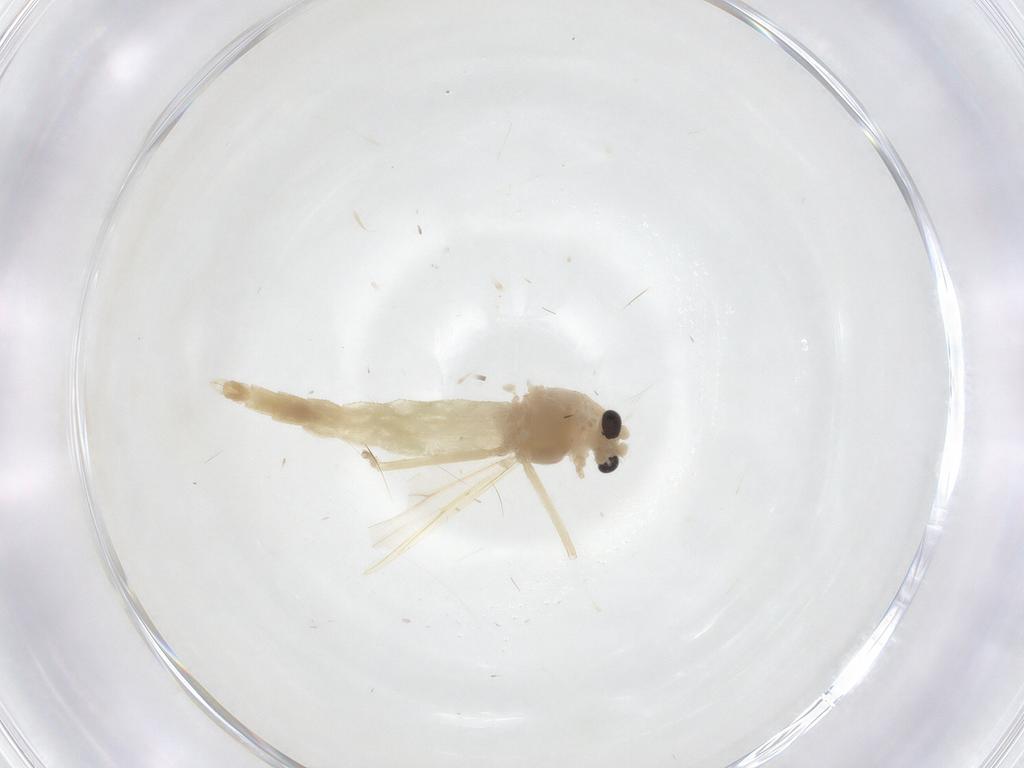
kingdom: Animalia
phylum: Arthropoda
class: Insecta
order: Diptera
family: Chironomidae
